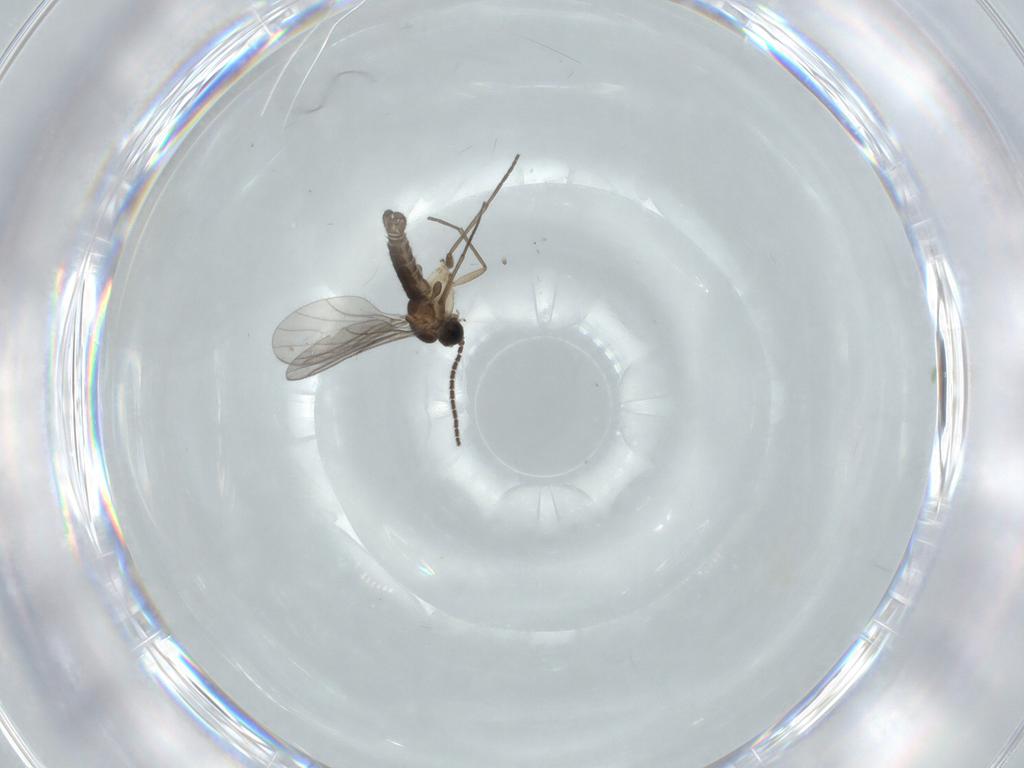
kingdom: Animalia
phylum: Arthropoda
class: Insecta
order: Diptera
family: Sciaridae
